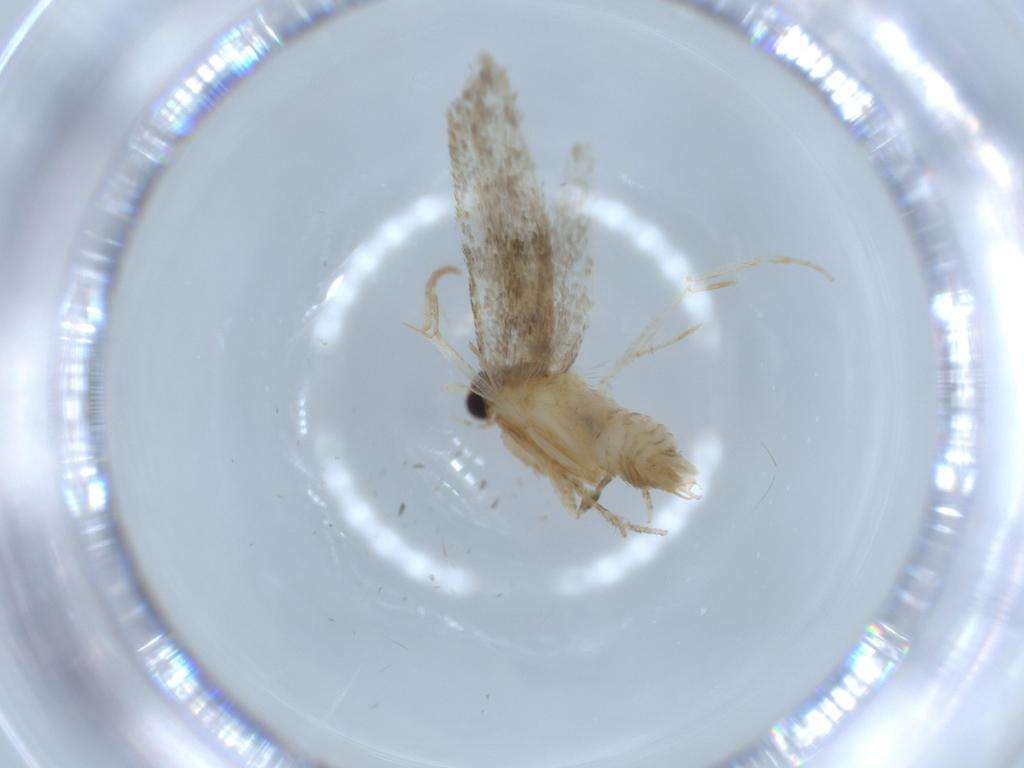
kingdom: Animalia
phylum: Arthropoda
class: Insecta
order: Lepidoptera
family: Tineidae
